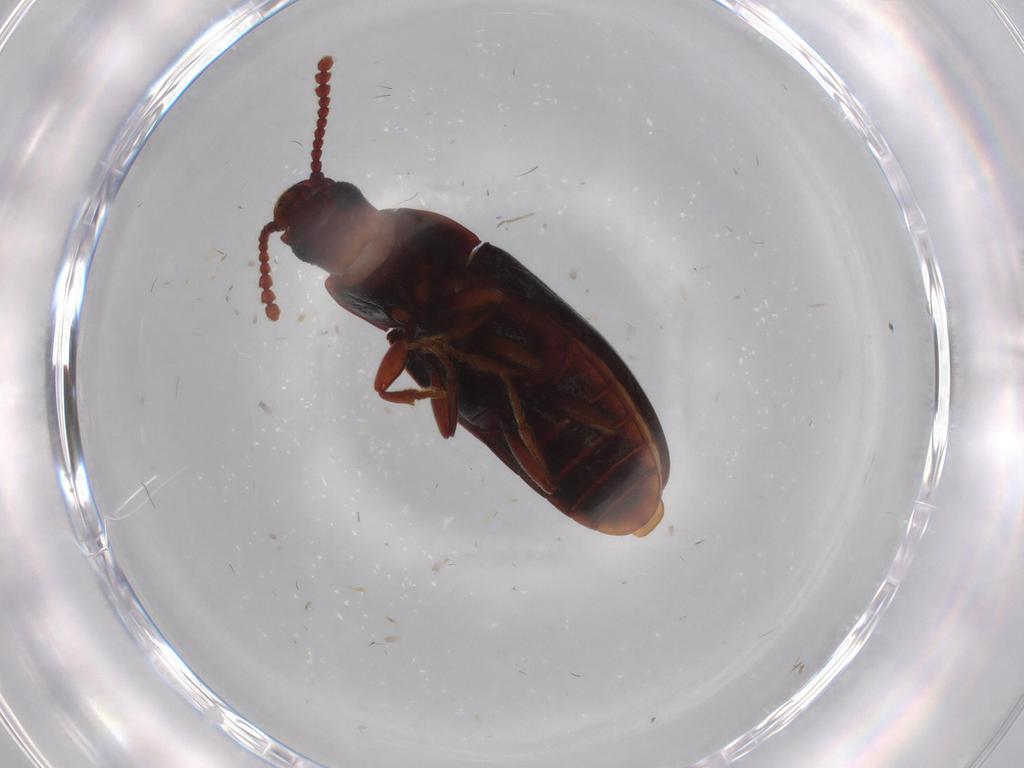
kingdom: Animalia
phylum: Arthropoda
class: Insecta
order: Coleoptera
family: Erotylidae
